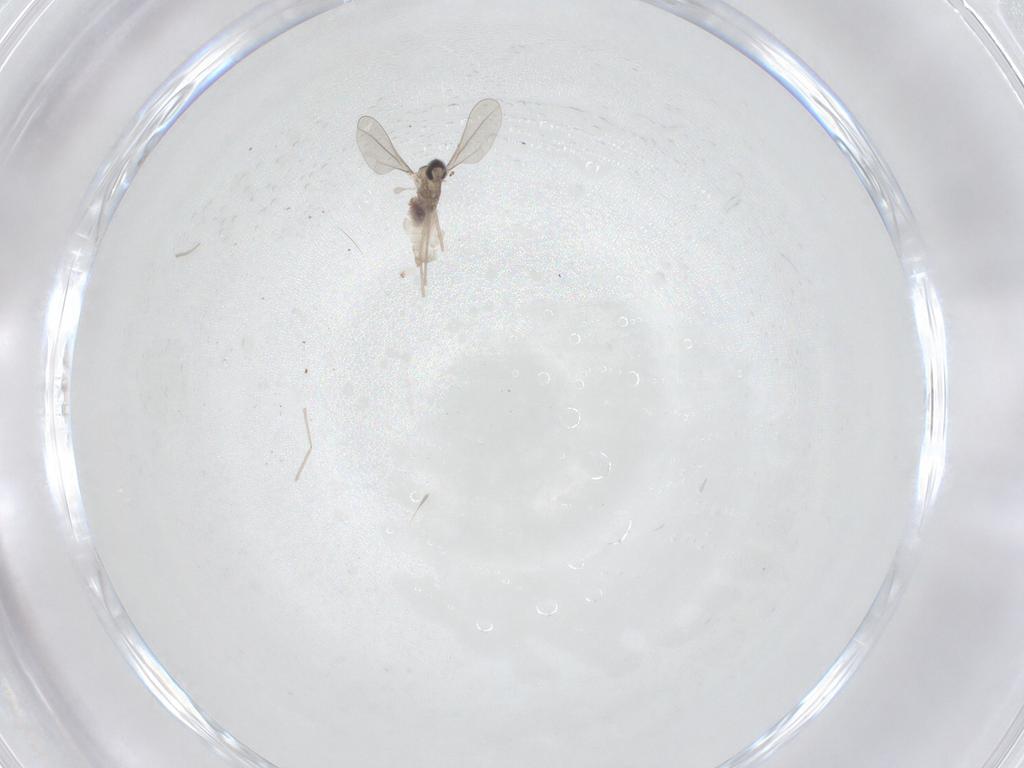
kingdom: Animalia
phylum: Arthropoda
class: Insecta
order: Diptera
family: Cecidomyiidae
